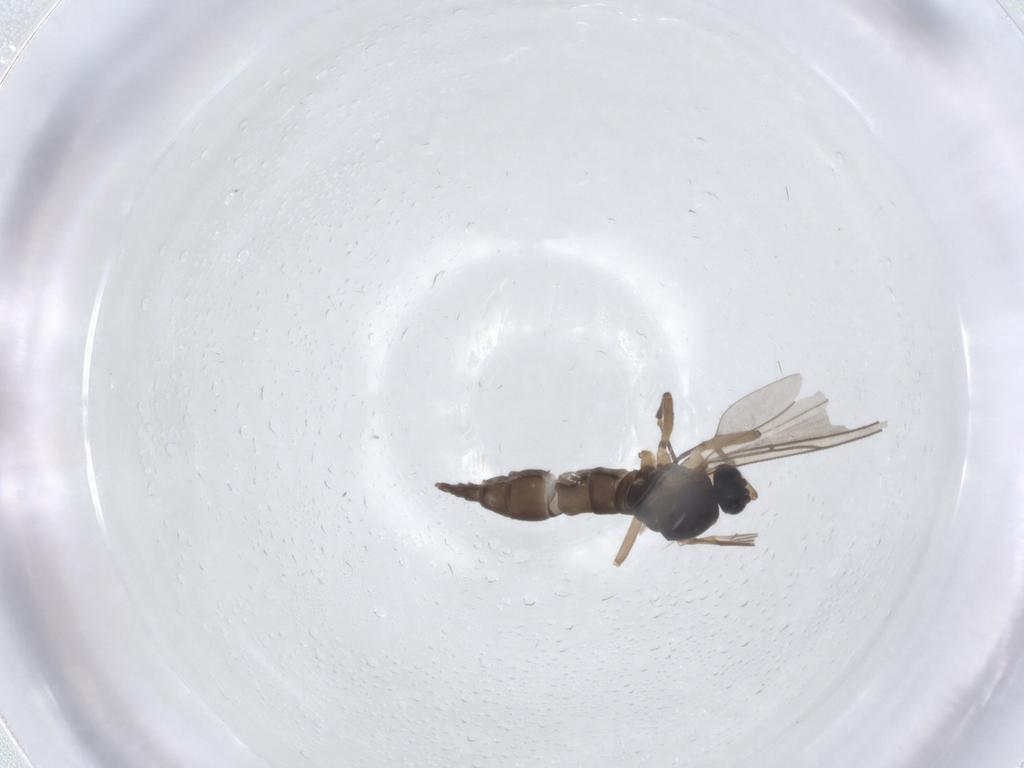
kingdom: Animalia
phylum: Arthropoda
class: Insecta
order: Diptera
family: Sciaridae
